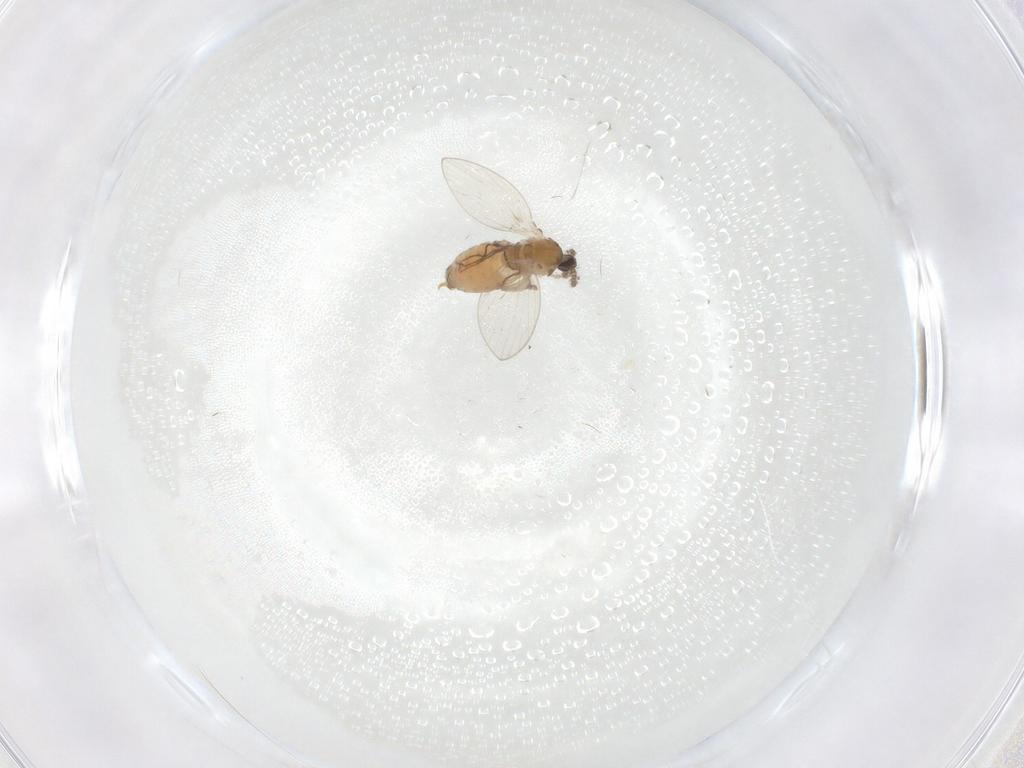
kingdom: Animalia
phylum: Arthropoda
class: Insecta
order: Diptera
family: Psychodidae
